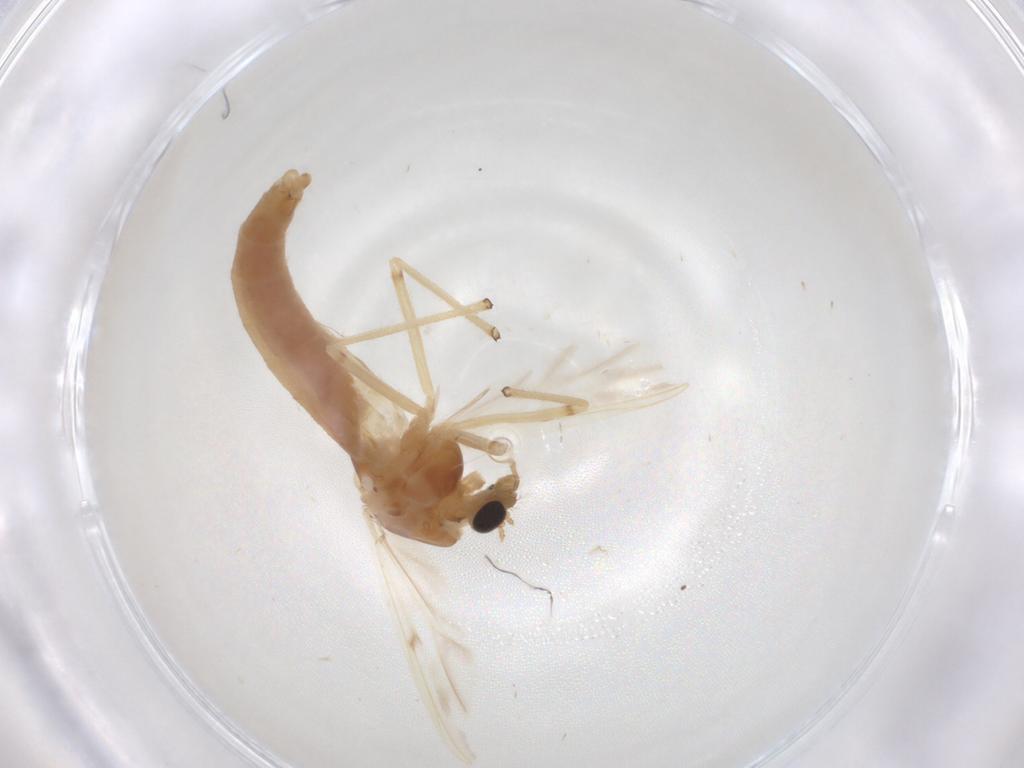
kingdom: Animalia
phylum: Arthropoda
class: Insecta
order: Diptera
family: Chironomidae
